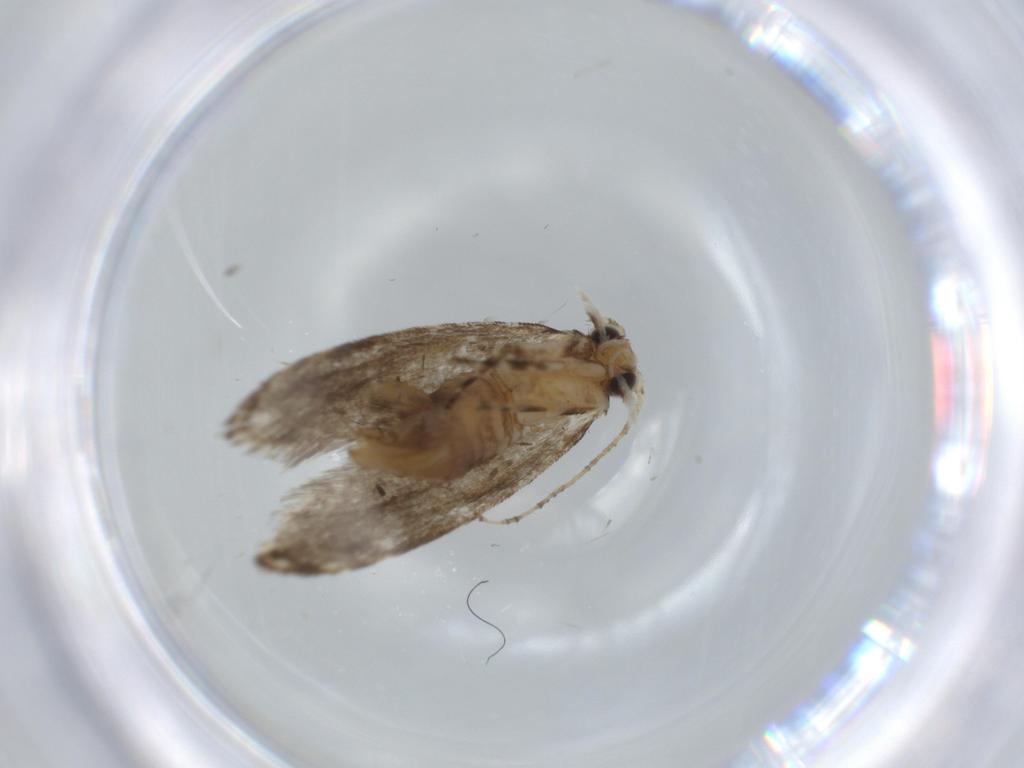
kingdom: Animalia
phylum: Arthropoda
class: Insecta
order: Lepidoptera
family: Tineidae
